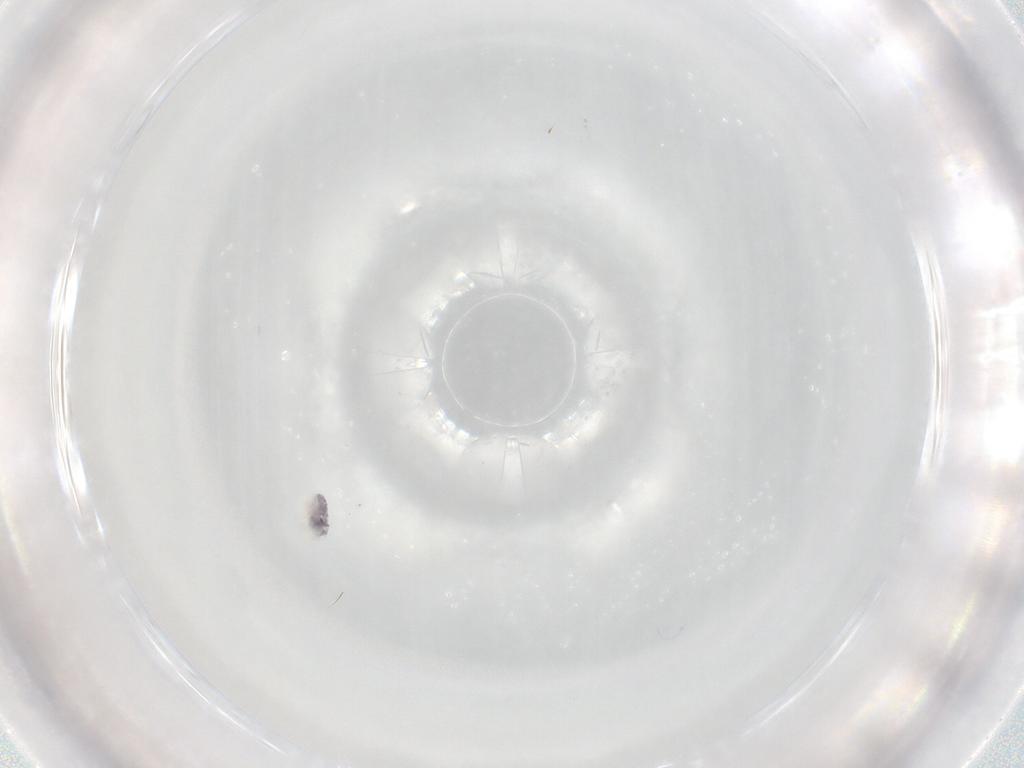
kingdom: Animalia
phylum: Arthropoda
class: Arachnida
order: Trombidiformes
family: Eupodidae
